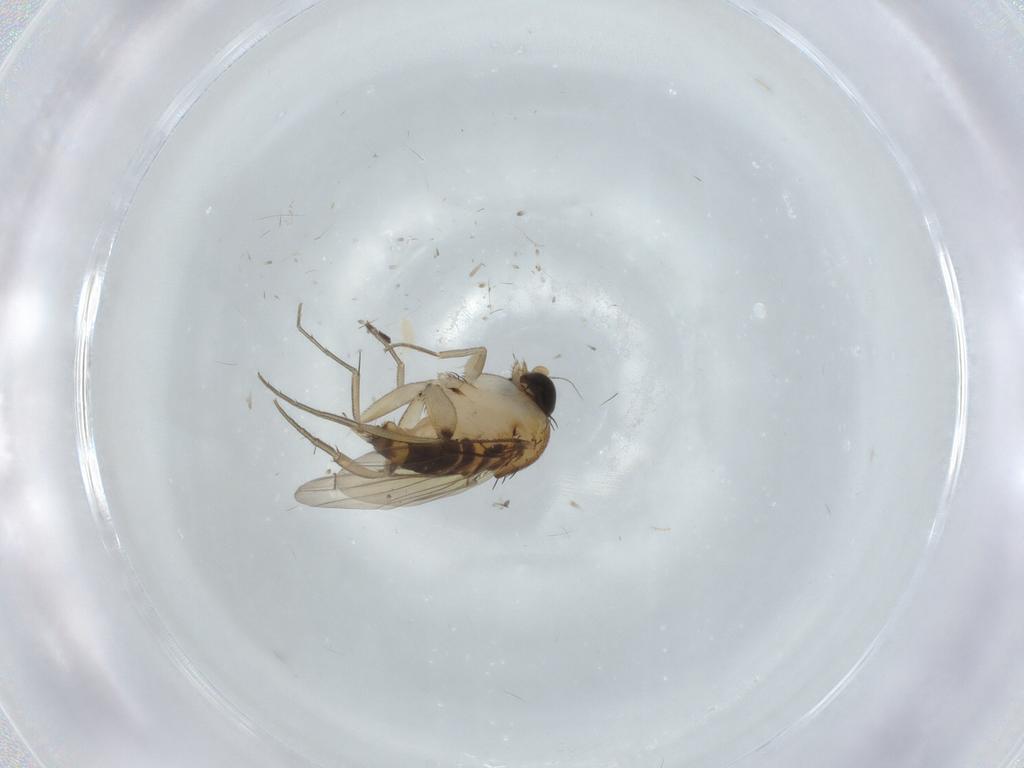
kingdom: Animalia
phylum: Arthropoda
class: Insecta
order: Diptera
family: Phoridae
